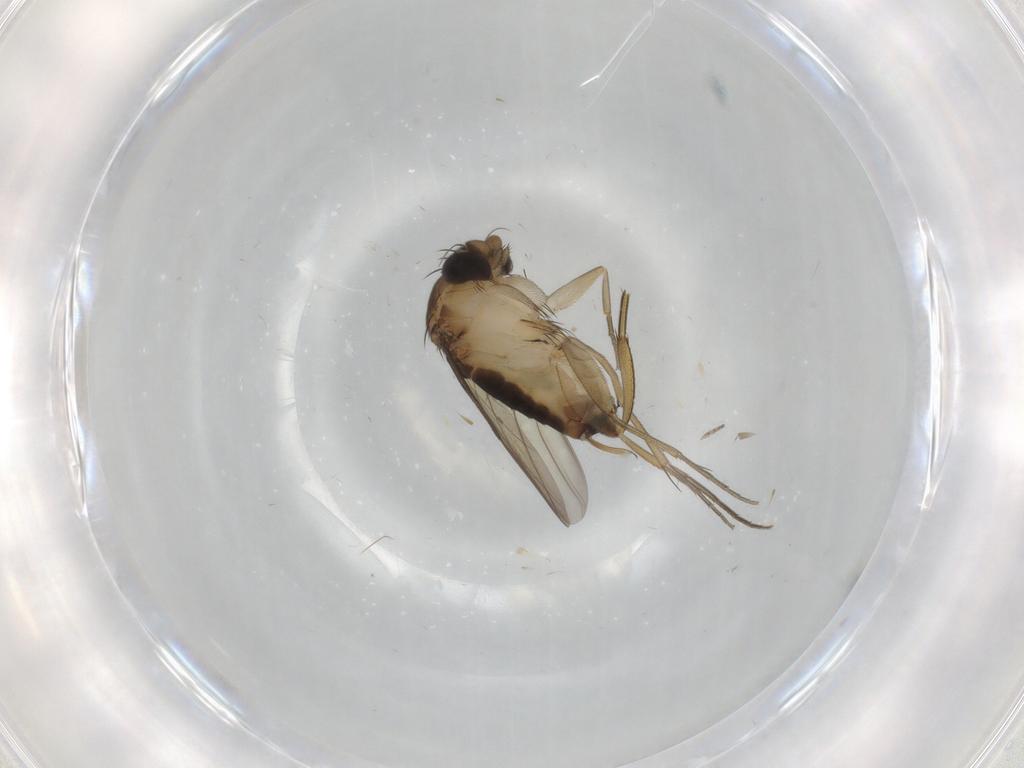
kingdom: Animalia
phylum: Arthropoda
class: Insecta
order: Diptera
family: Phoridae
